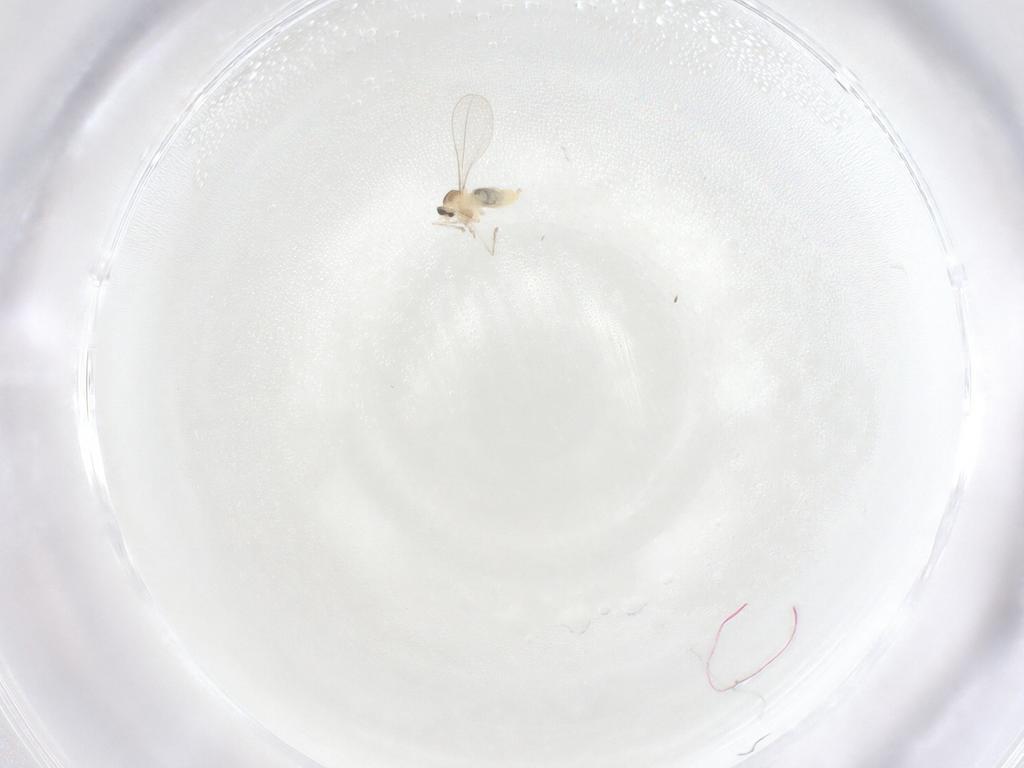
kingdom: Animalia
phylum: Arthropoda
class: Insecta
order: Diptera
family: Cecidomyiidae
